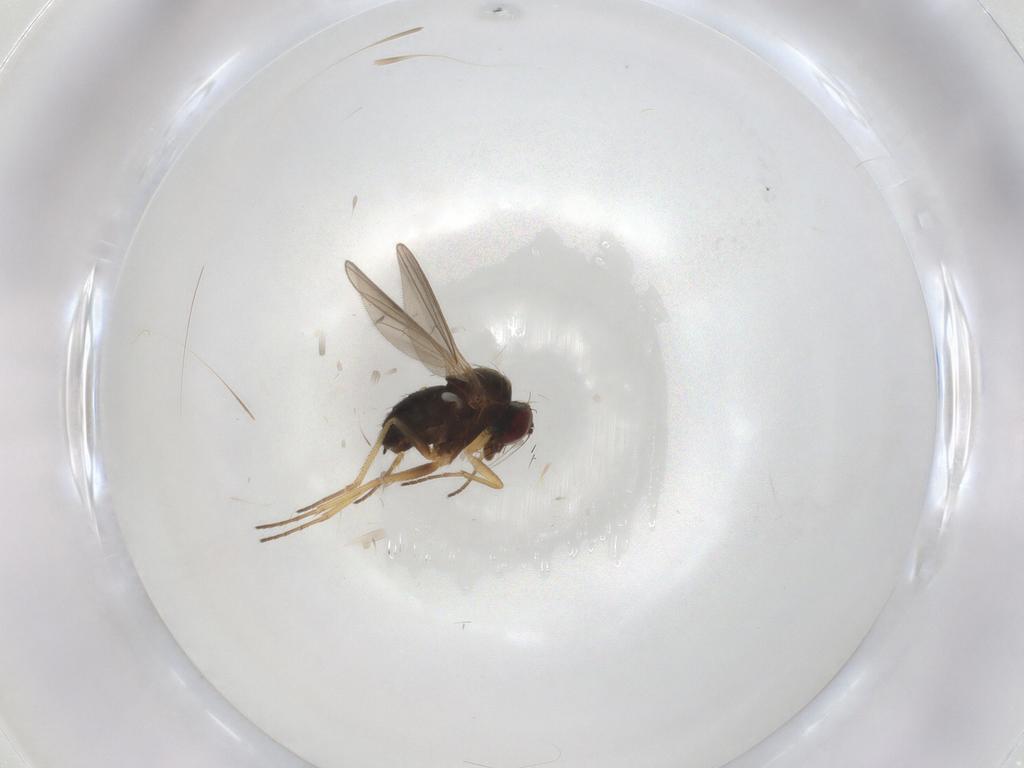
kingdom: Animalia
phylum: Arthropoda
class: Insecta
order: Diptera
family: Dolichopodidae
